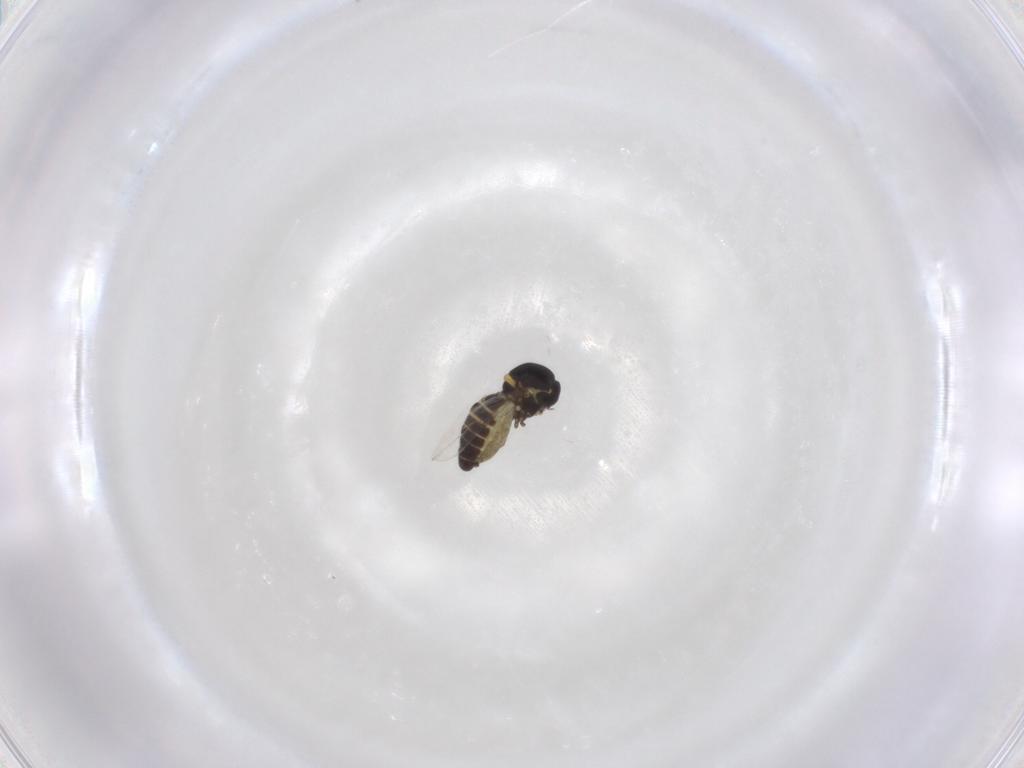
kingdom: Animalia
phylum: Arthropoda
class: Insecta
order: Diptera
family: Ceratopogonidae
